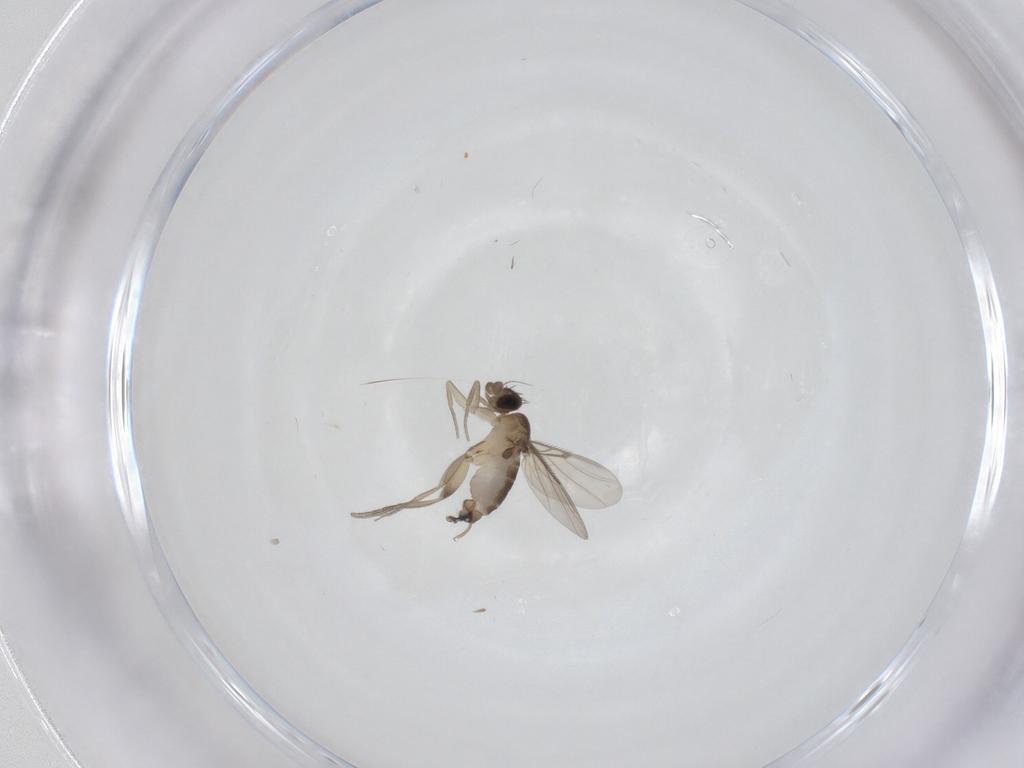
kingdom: Animalia
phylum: Arthropoda
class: Insecta
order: Diptera
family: Phoridae
